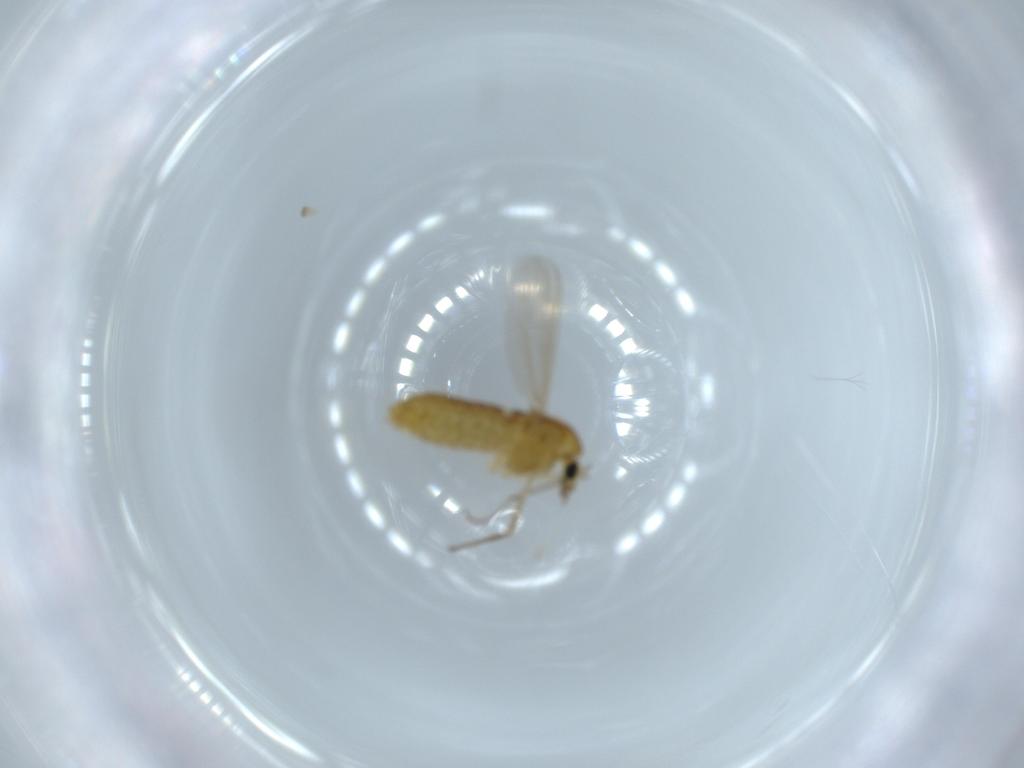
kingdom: Animalia
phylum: Arthropoda
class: Insecta
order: Diptera
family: Chironomidae
